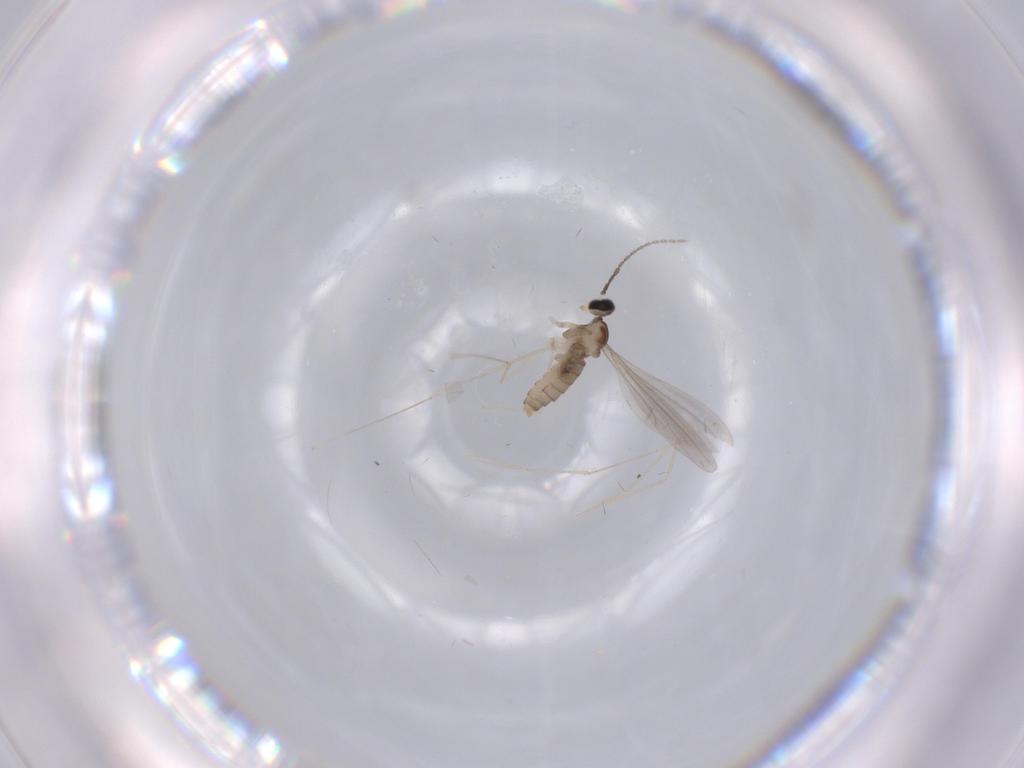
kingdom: Animalia
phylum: Arthropoda
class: Insecta
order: Diptera
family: Cecidomyiidae
